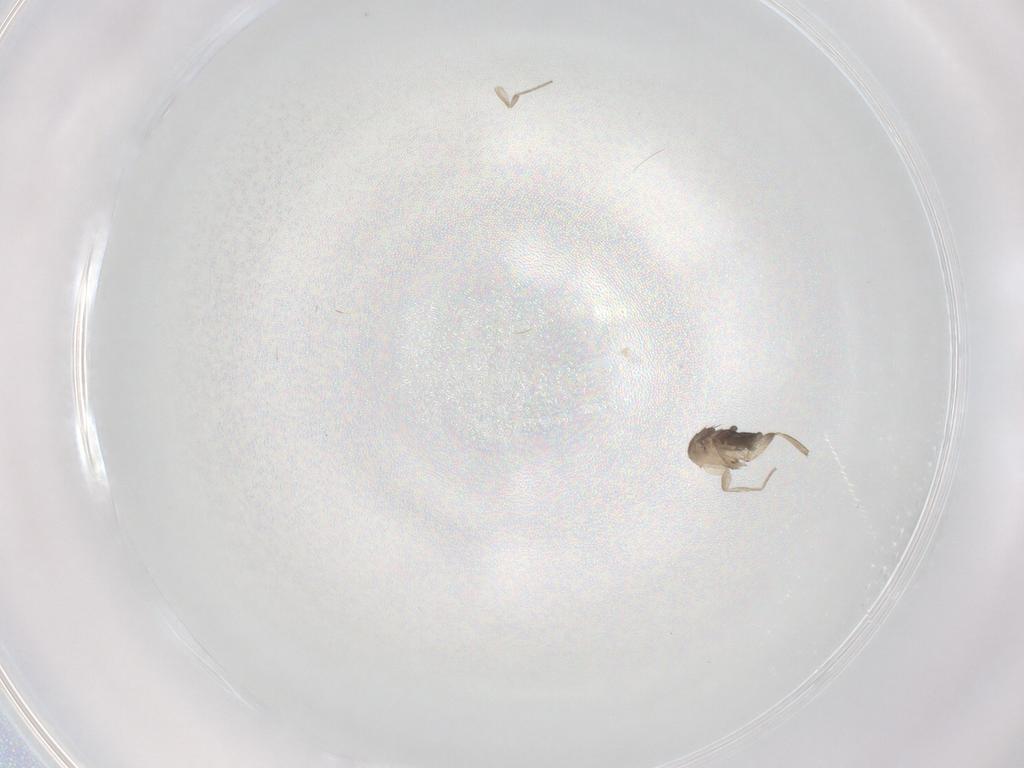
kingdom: Animalia
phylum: Arthropoda
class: Insecta
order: Diptera
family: Phoridae
